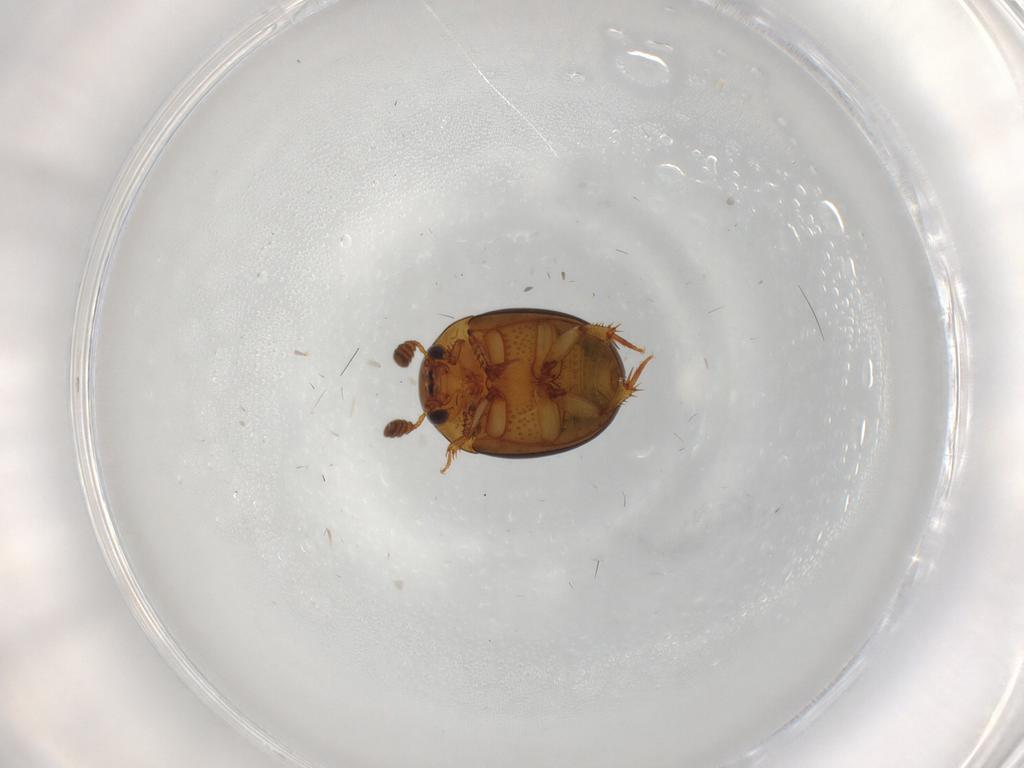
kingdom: Animalia
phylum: Arthropoda
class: Insecta
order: Coleoptera
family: Leiodidae
